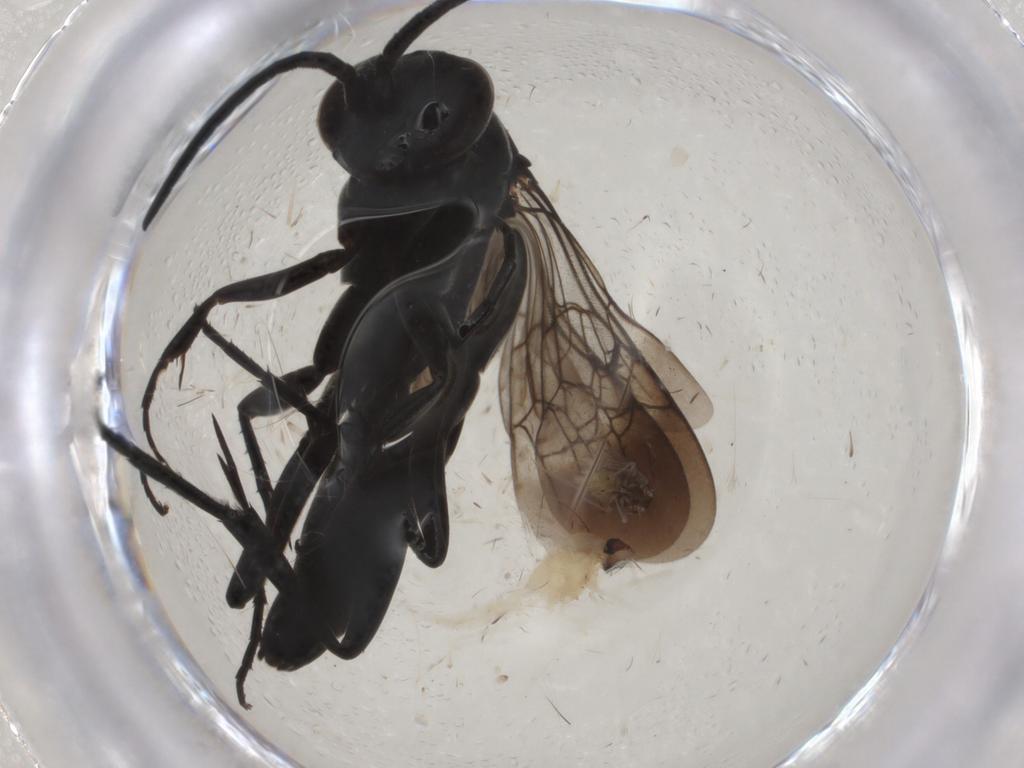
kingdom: Animalia
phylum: Arthropoda
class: Insecta
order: Hymenoptera
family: Pompilidae
